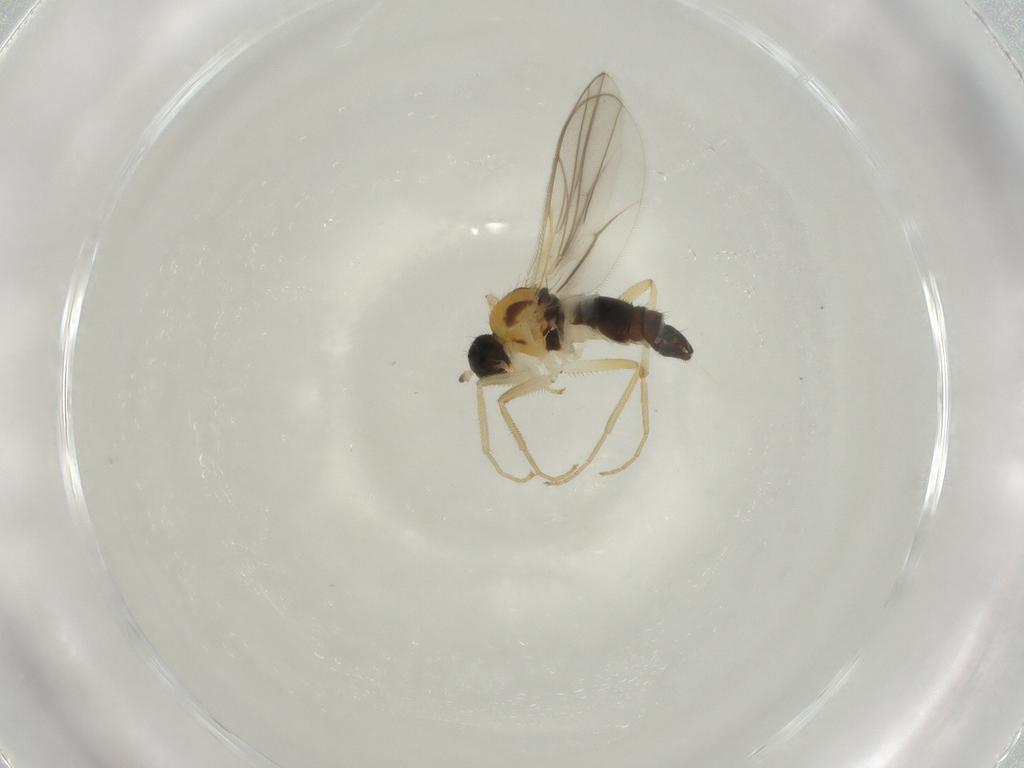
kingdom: Animalia
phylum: Arthropoda
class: Insecta
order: Diptera
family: Hybotidae
